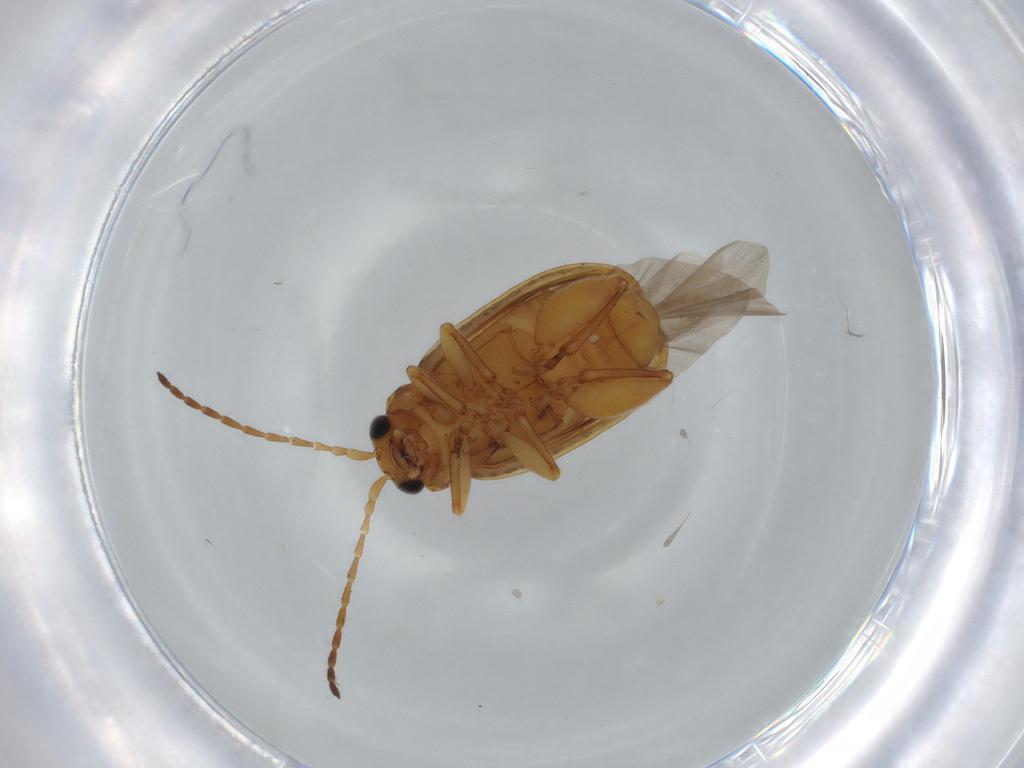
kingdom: Animalia
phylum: Arthropoda
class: Insecta
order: Coleoptera
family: Chrysomelidae
